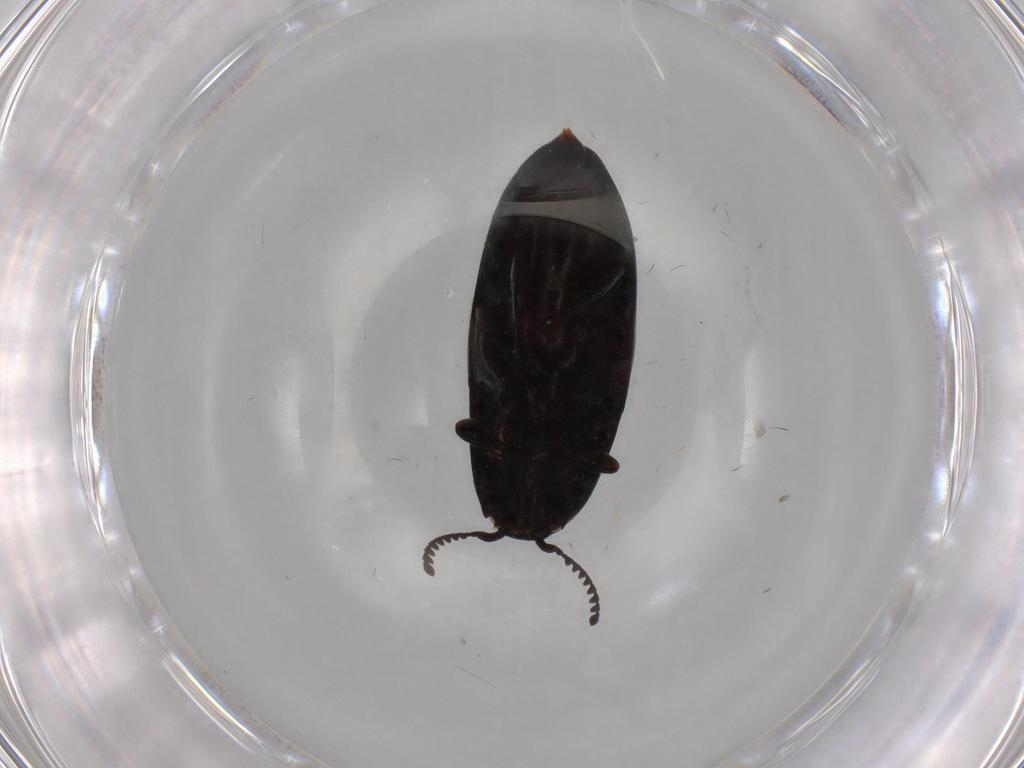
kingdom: Animalia
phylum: Arthropoda
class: Insecta
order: Coleoptera
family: Elateridae
